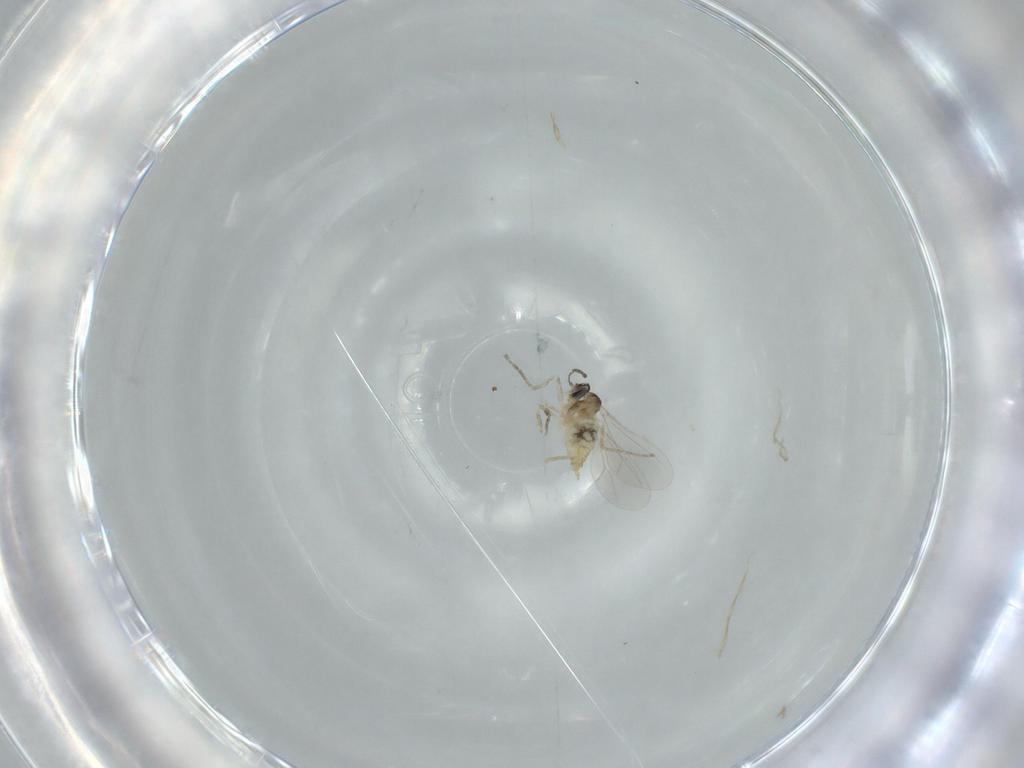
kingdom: Animalia
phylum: Arthropoda
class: Insecta
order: Diptera
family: Cecidomyiidae
